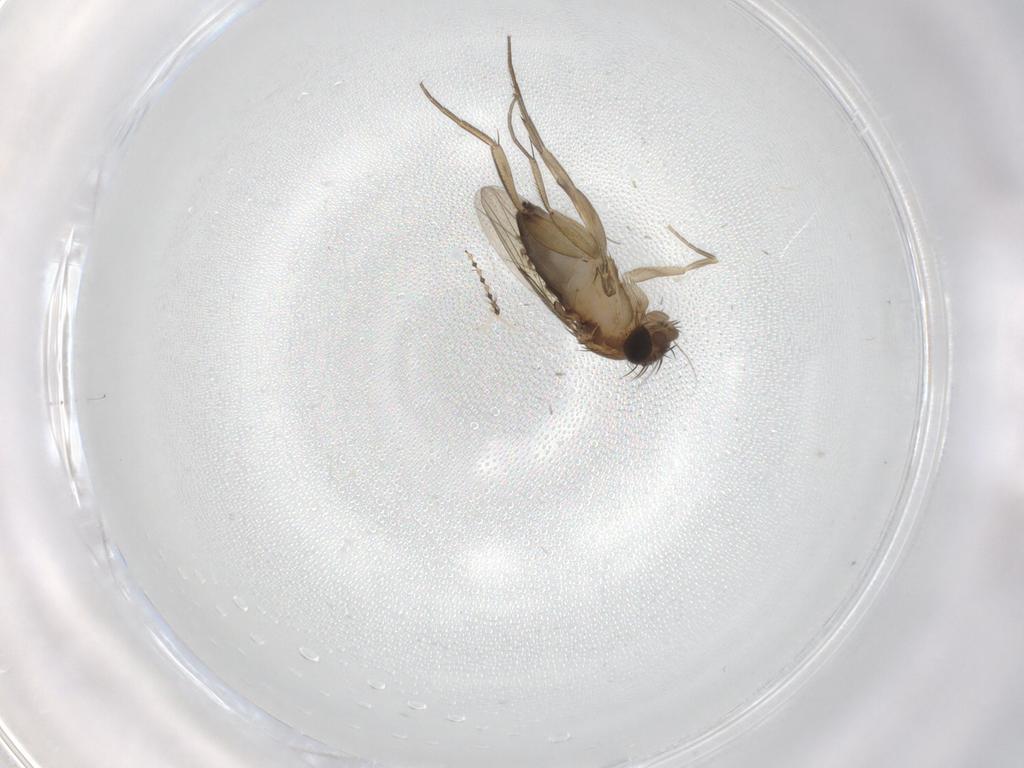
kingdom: Animalia
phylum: Arthropoda
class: Insecta
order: Diptera
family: Phoridae
